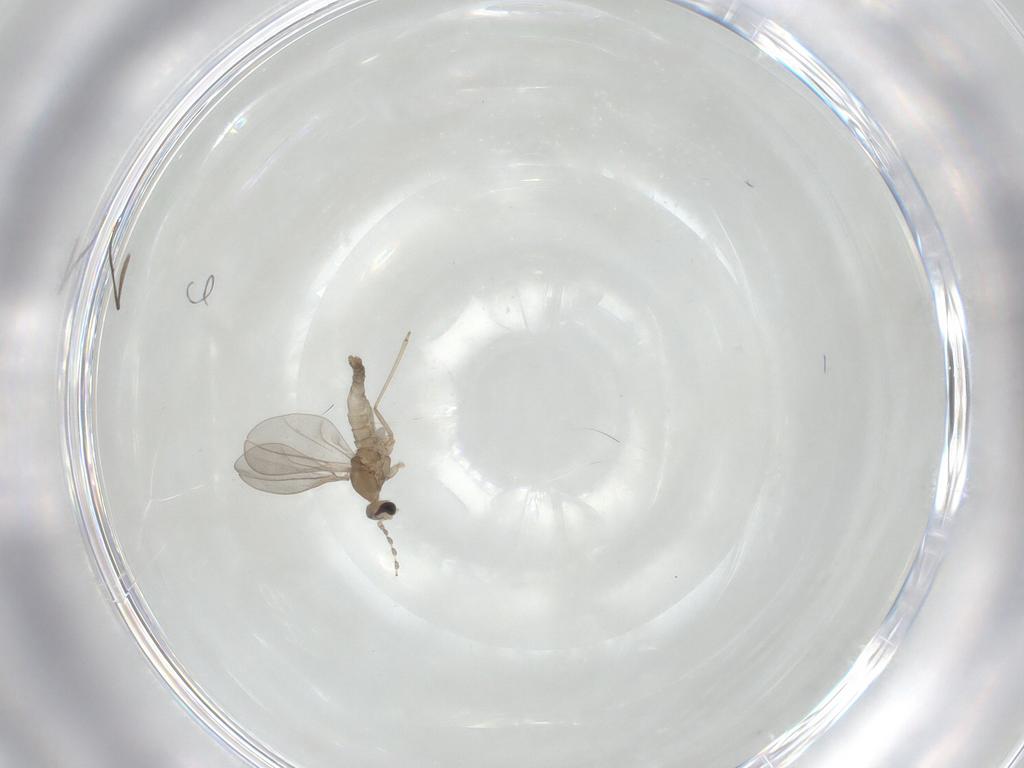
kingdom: Animalia
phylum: Arthropoda
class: Insecta
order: Diptera
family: Cecidomyiidae
